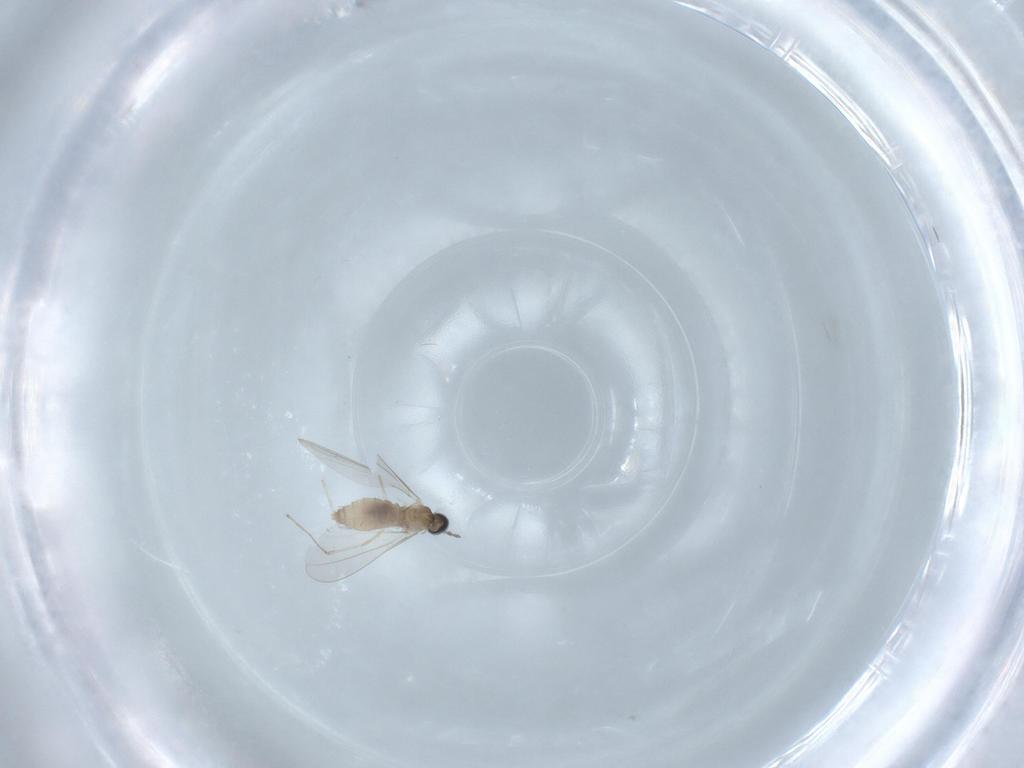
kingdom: Animalia
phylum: Arthropoda
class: Insecta
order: Diptera
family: Cecidomyiidae
